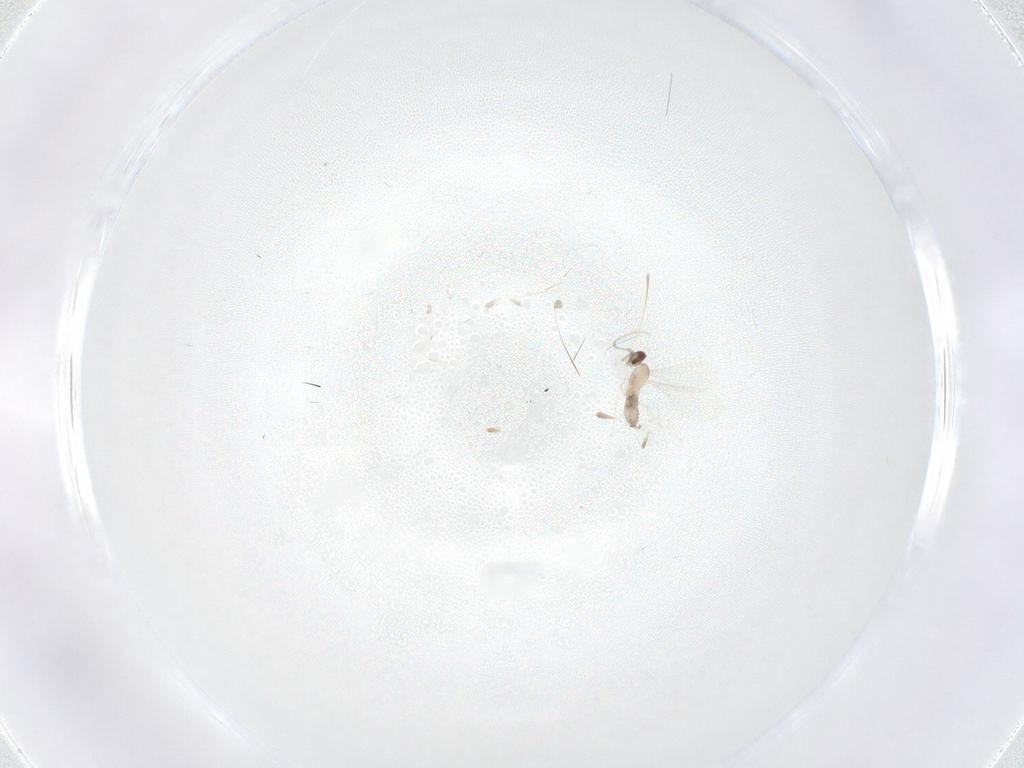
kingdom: Animalia
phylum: Arthropoda
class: Insecta
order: Diptera
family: Cecidomyiidae
